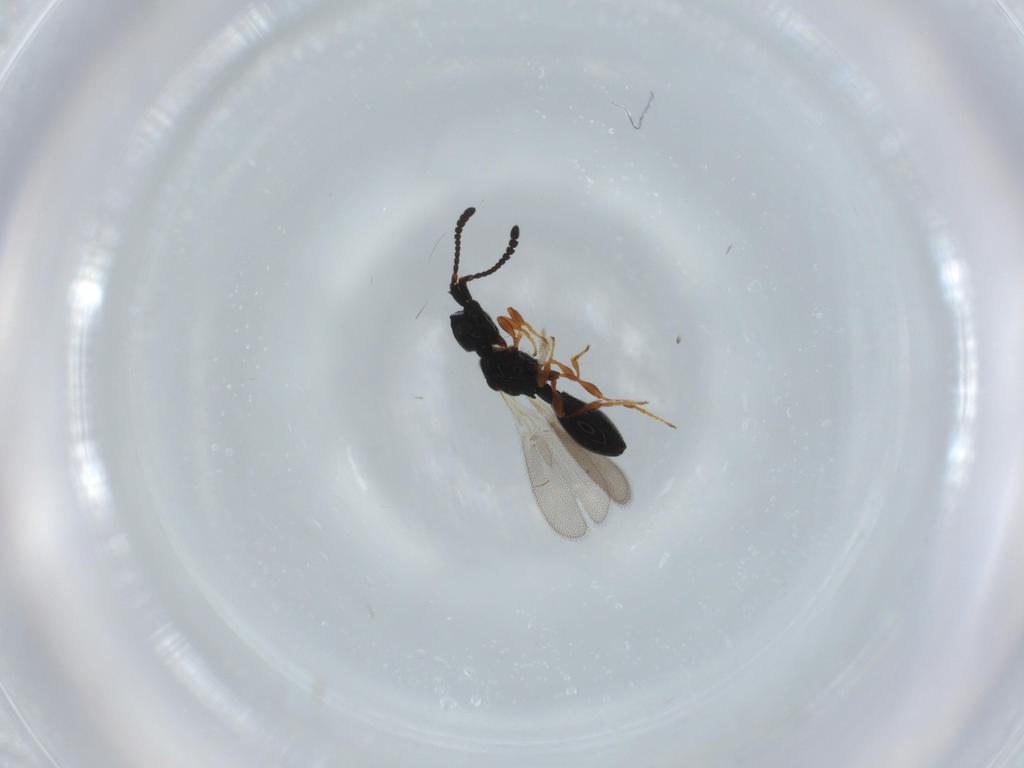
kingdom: Animalia
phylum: Arthropoda
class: Insecta
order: Hymenoptera
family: Diapriidae
